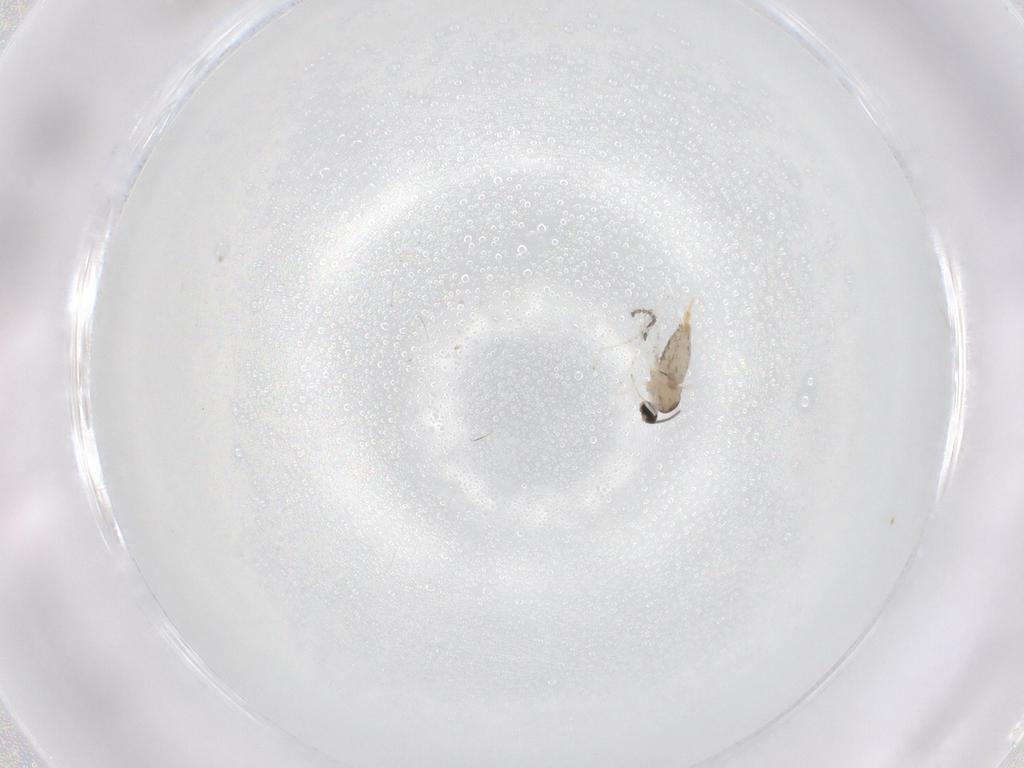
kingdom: Animalia
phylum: Arthropoda
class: Insecta
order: Diptera
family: Cecidomyiidae
